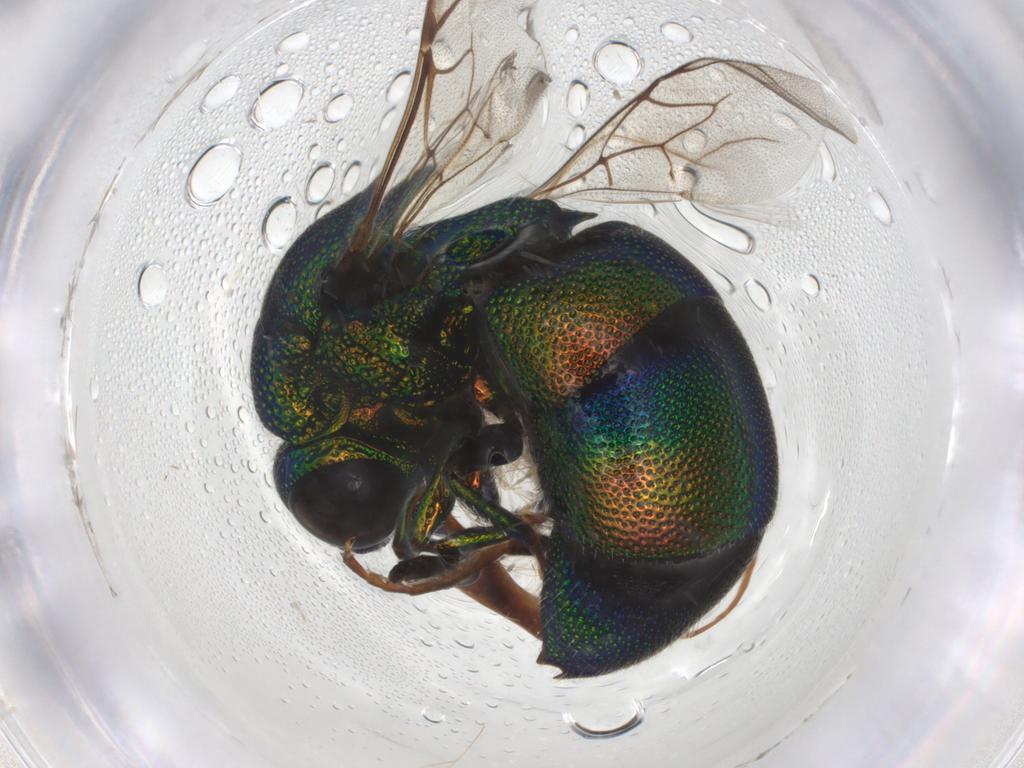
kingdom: Animalia
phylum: Arthropoda
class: Insecta
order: Hymenoptera
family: Chrysididae
